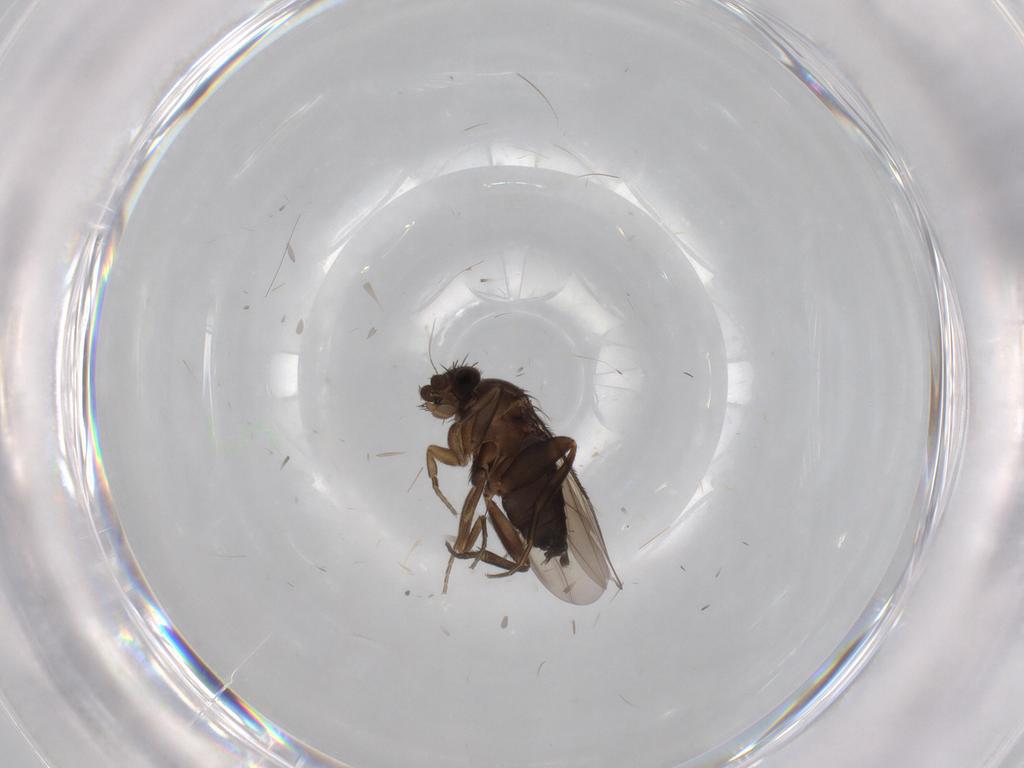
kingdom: Animalia
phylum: Arthropoda
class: Insecta
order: Diptera
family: Phoridae
